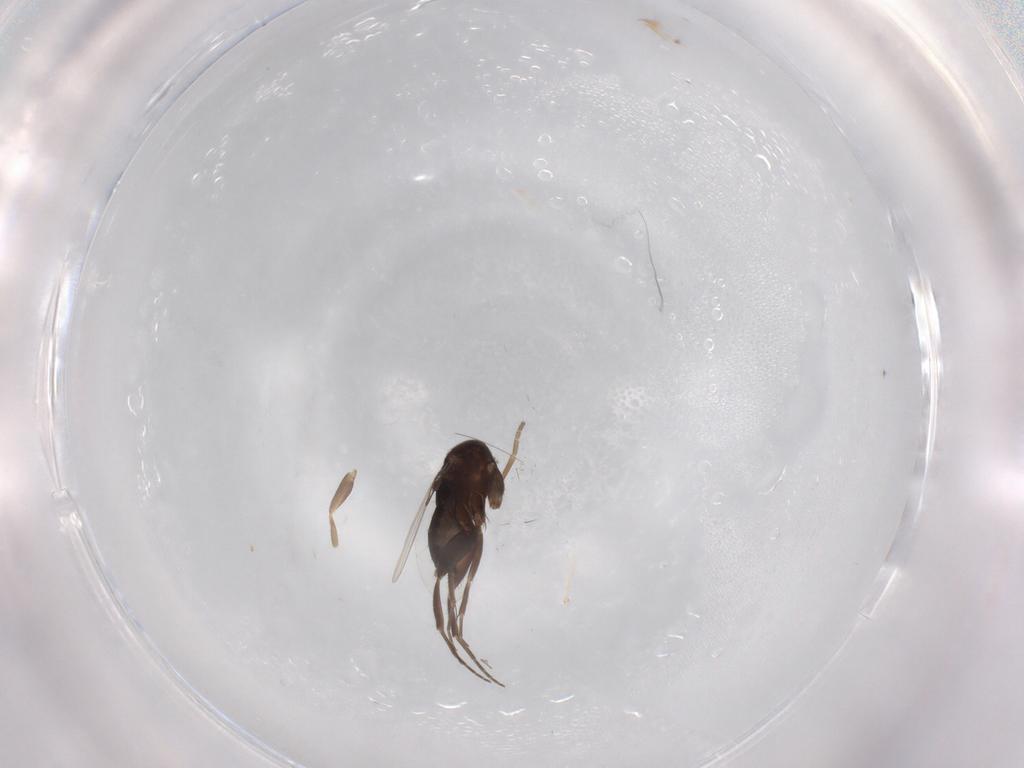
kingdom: Animalia
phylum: Arthropoda
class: Insecta
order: Diptera
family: Phoridae
